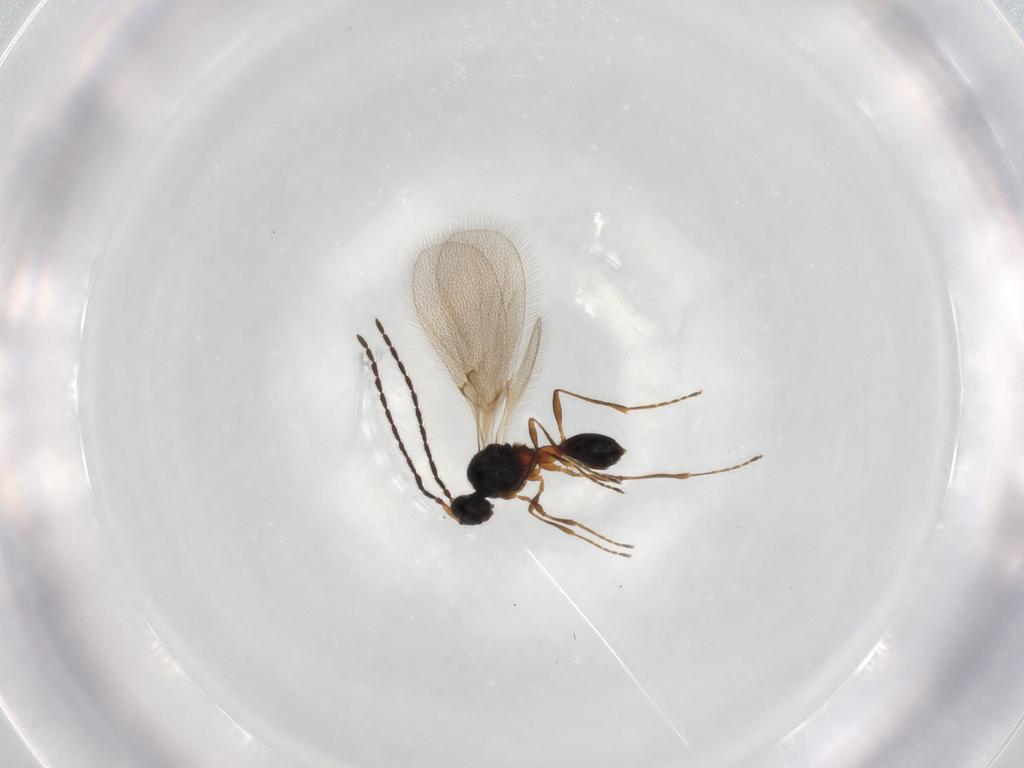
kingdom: Animalia
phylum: Arthropoda
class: Insecta
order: Hymenoptera
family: Diapriidae
